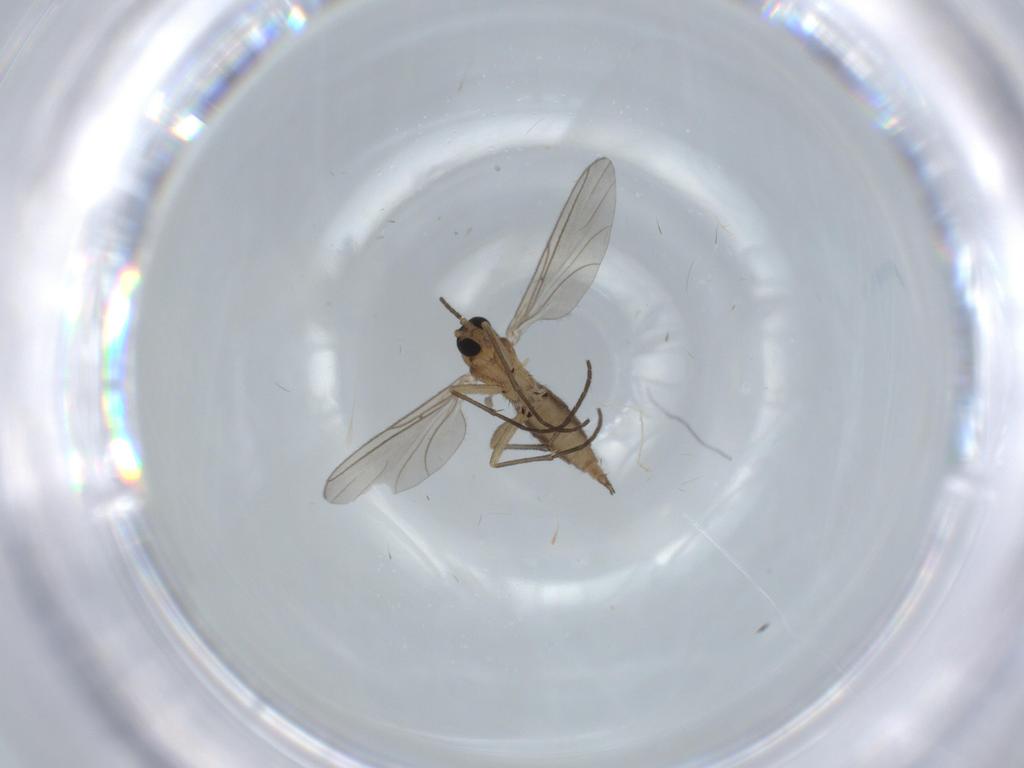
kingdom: Animalia
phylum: Arthropoda
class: Insecta
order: Diptera
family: Sciaridae
